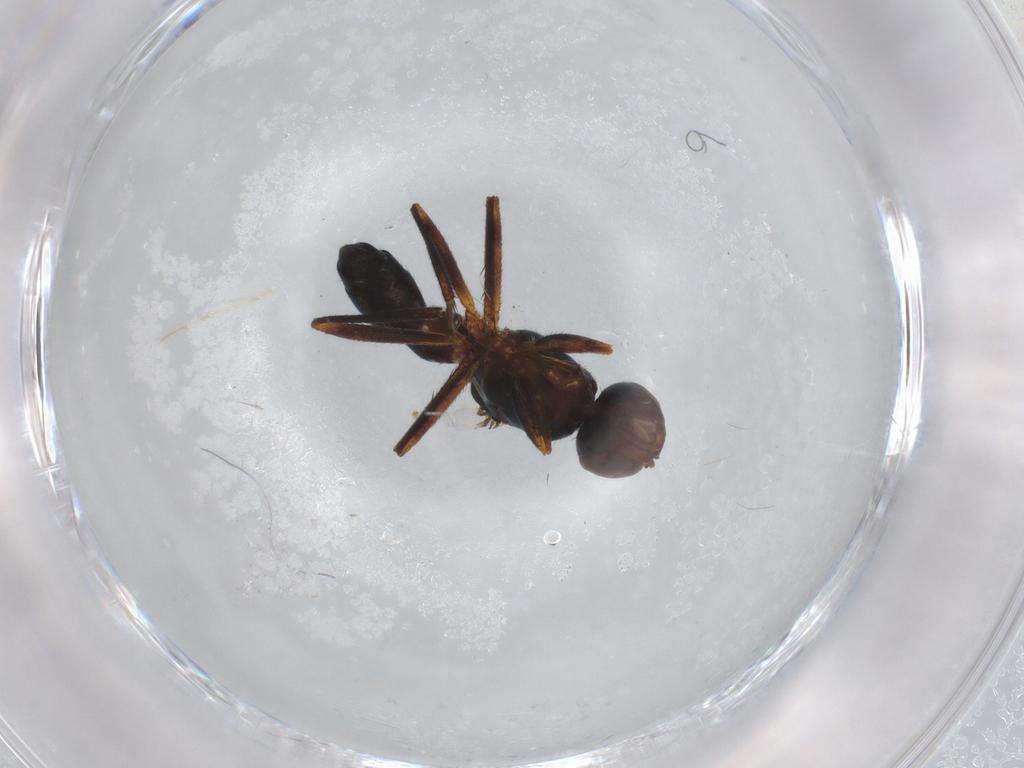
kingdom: Animalia
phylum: Arthropoda
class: Insecta
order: Diptera
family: Sepsidae
